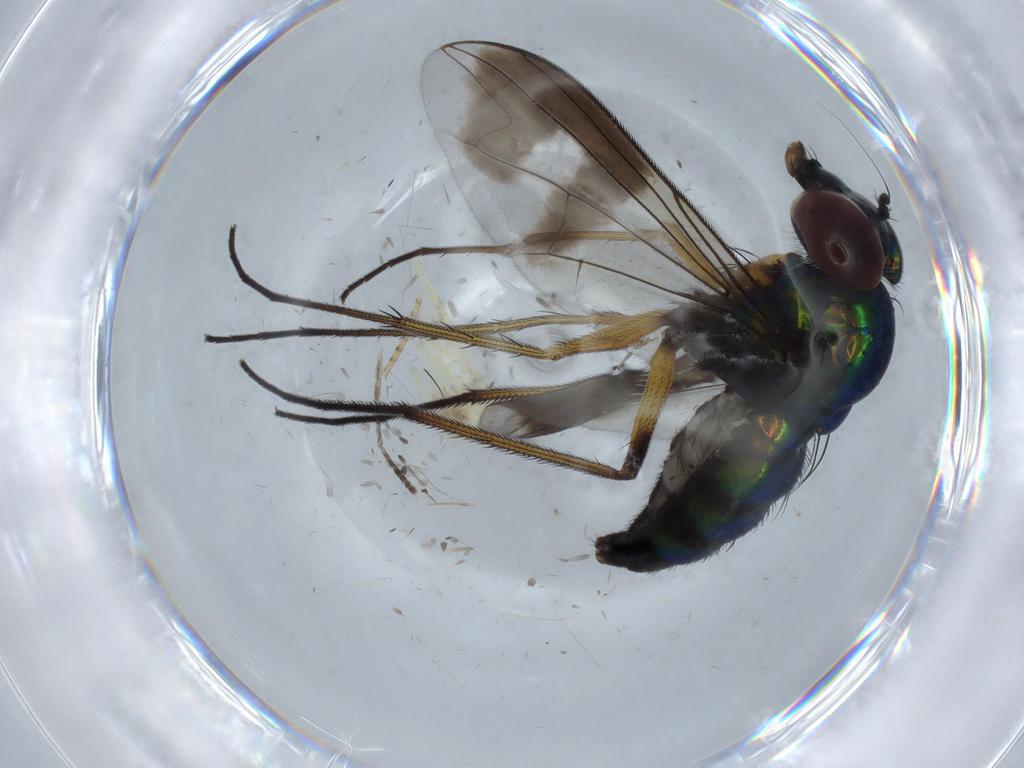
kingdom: Animalia
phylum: Arthropoda
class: Insecta
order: Diptera
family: Dolichopodidae
